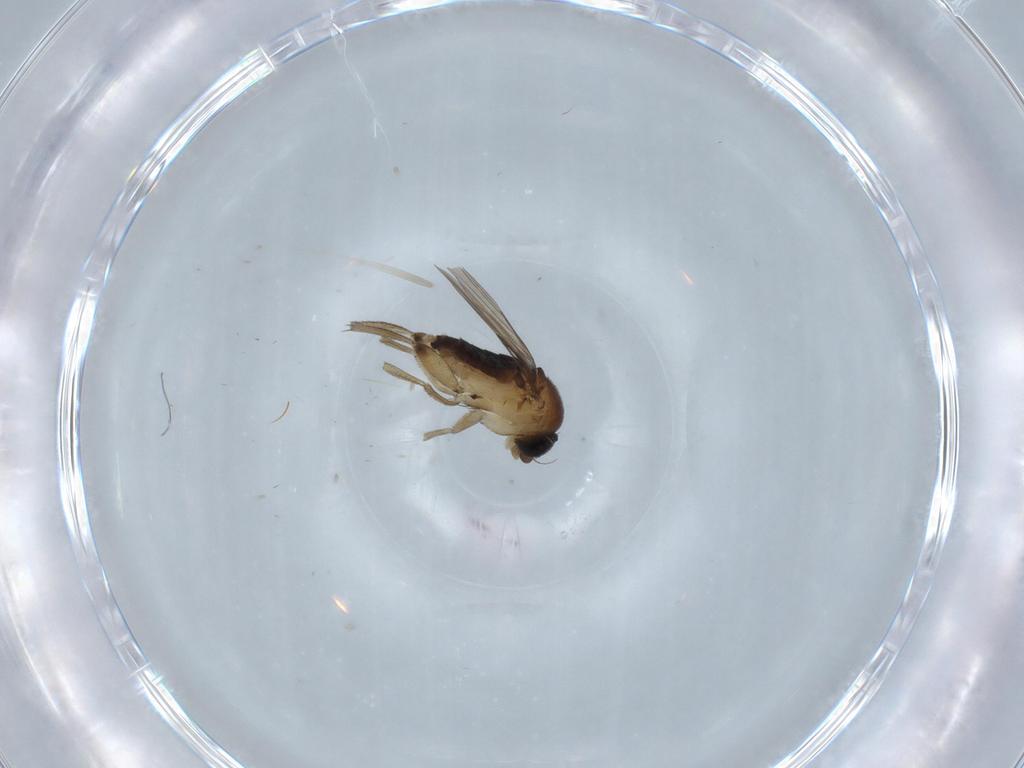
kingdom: Animalia
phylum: Arthropoda
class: Insecta
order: Diptera
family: Phoridae
